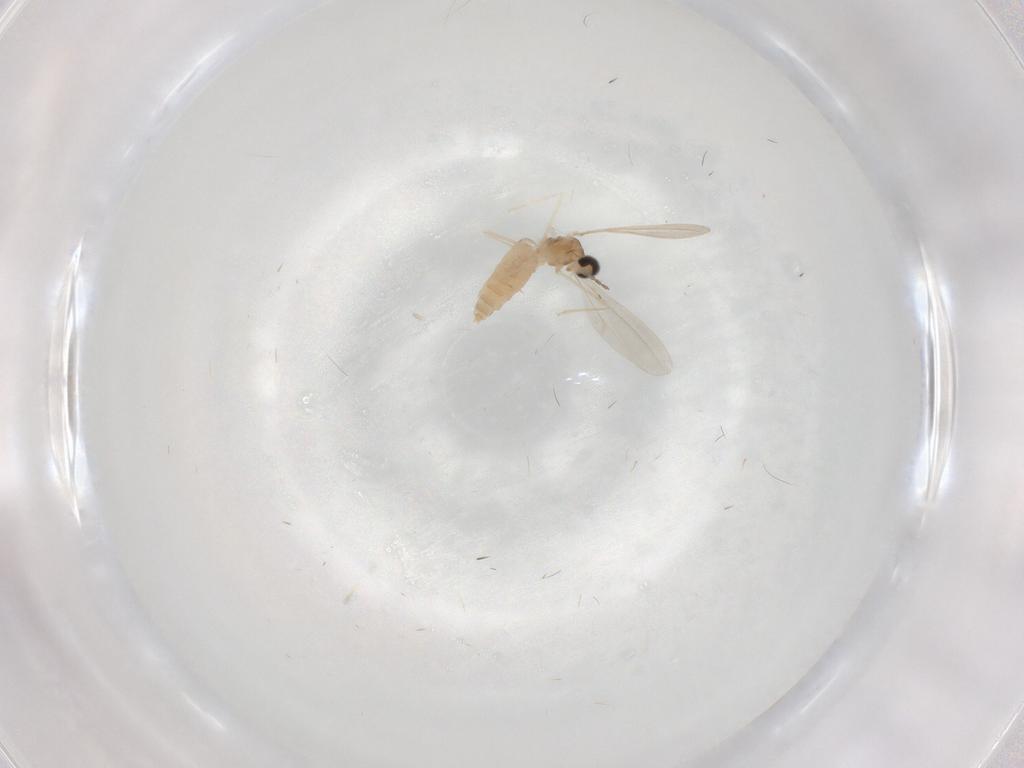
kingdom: Animalia
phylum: Arthropoda
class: Insecta
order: Diptera
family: Cecidomyiidae
